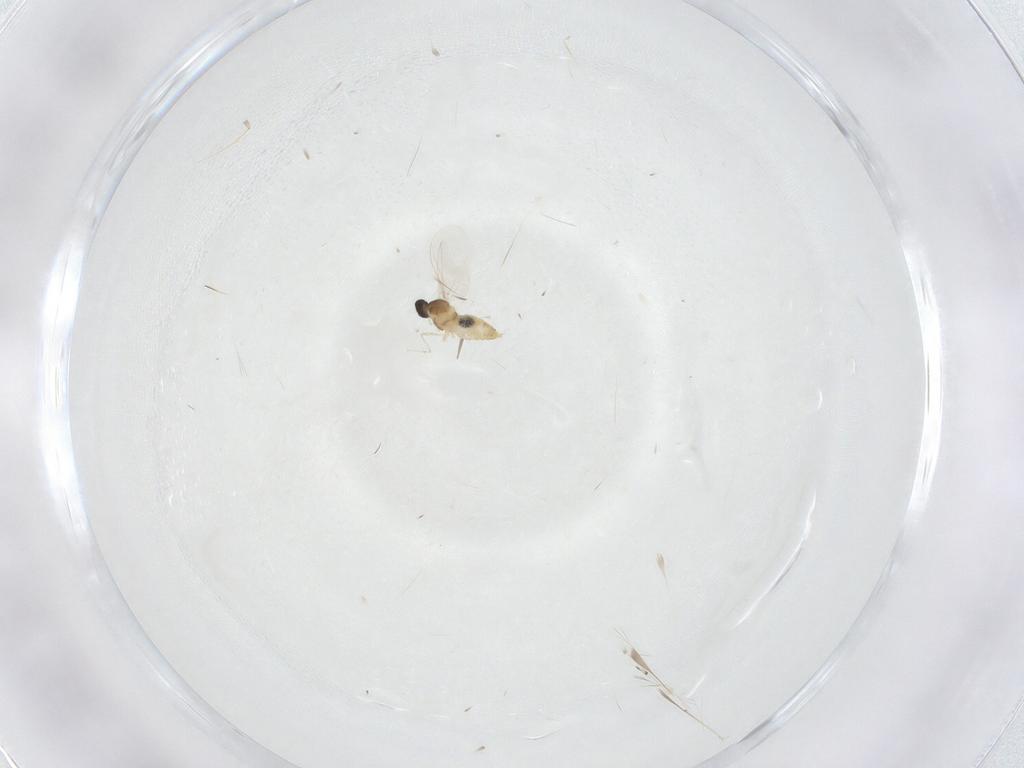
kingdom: Animalia
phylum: Arthropoda
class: Insecta
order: Diptera
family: Cecidomyiidae
